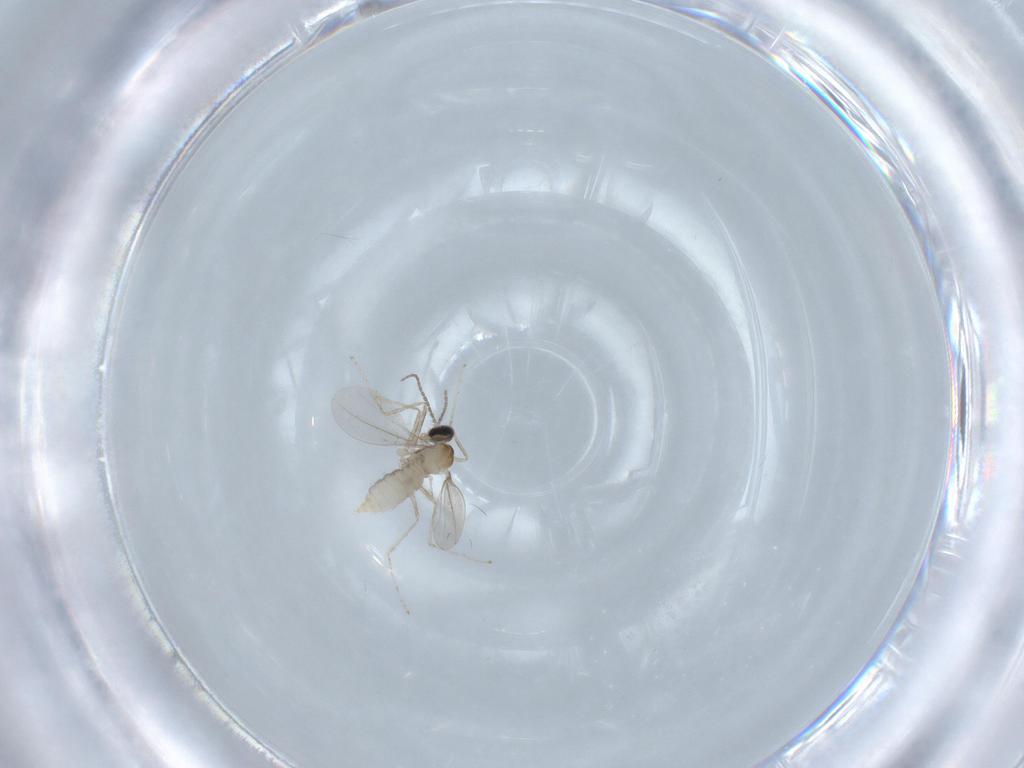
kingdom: Animalia
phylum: Arthropoda
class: Insecta
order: Diptera
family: Cecidomyiidae
